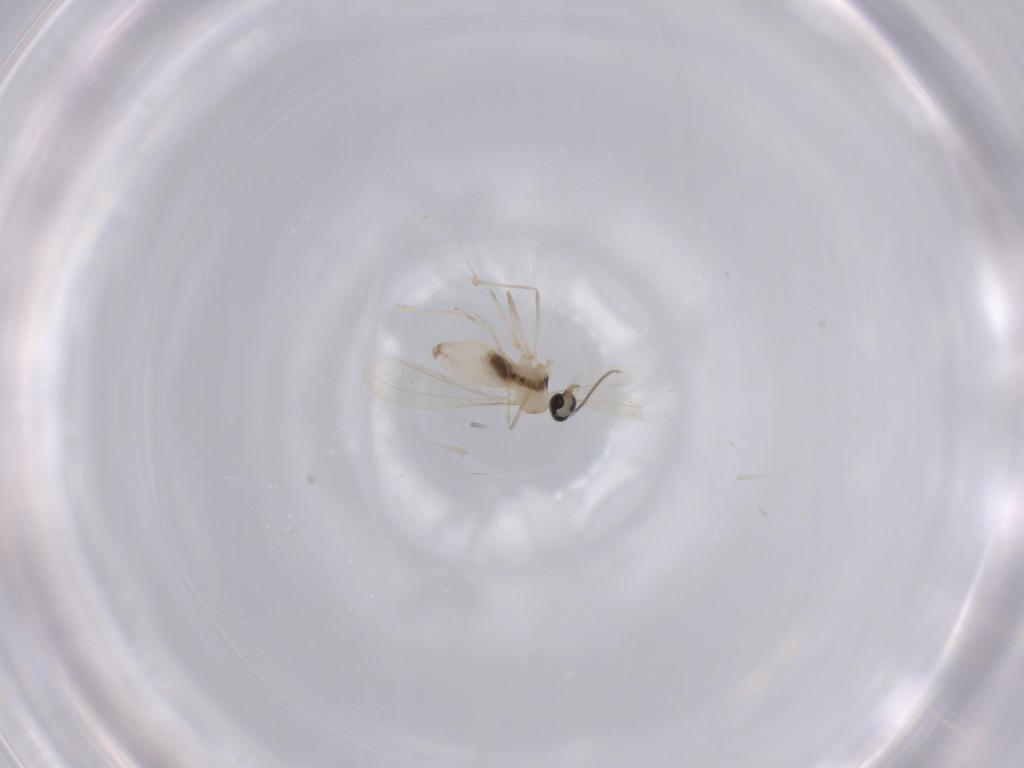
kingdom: Animalia
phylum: Arthropoda
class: Insecta
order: Diptera
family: Cecidomyiidae
